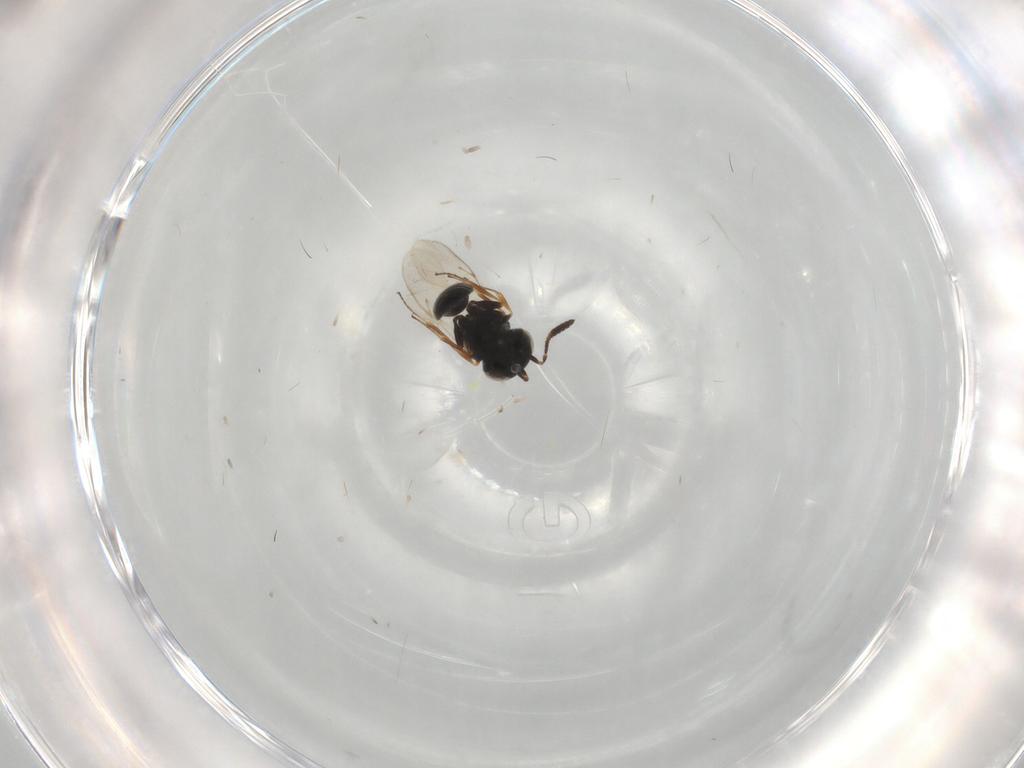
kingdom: Animalia
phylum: Arthropoda
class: Insecta
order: Hymenoptera
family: Scelionidae
